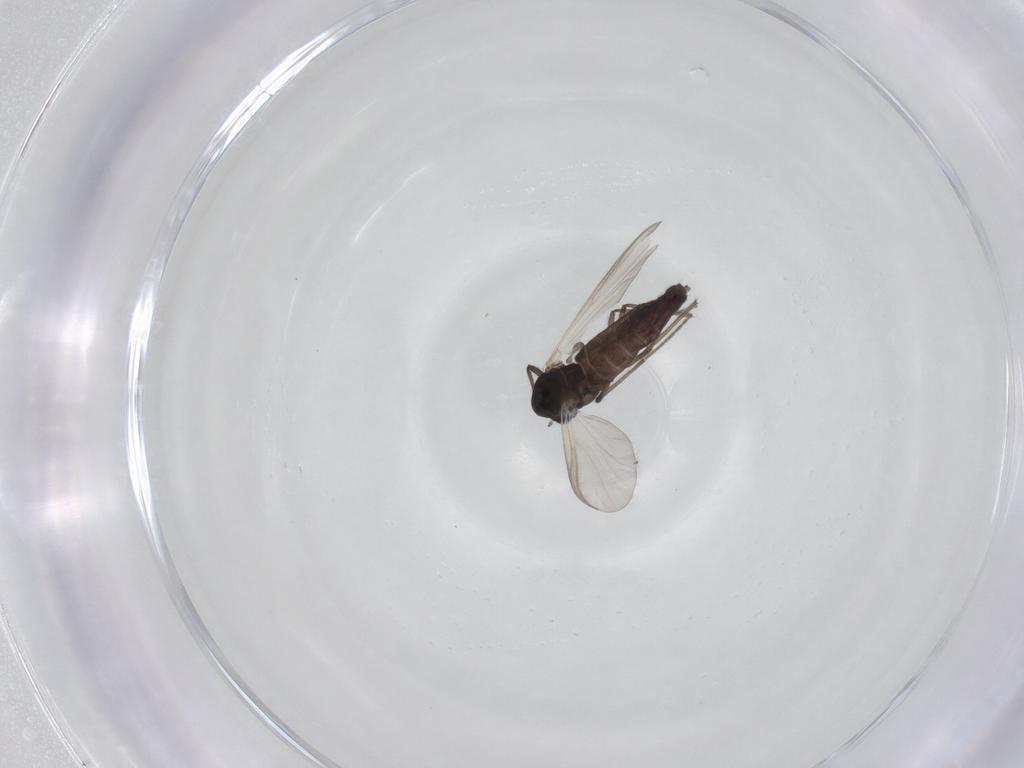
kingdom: Animalia
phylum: Arthropoda
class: Insecta
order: Diptera
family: Chironomidae
